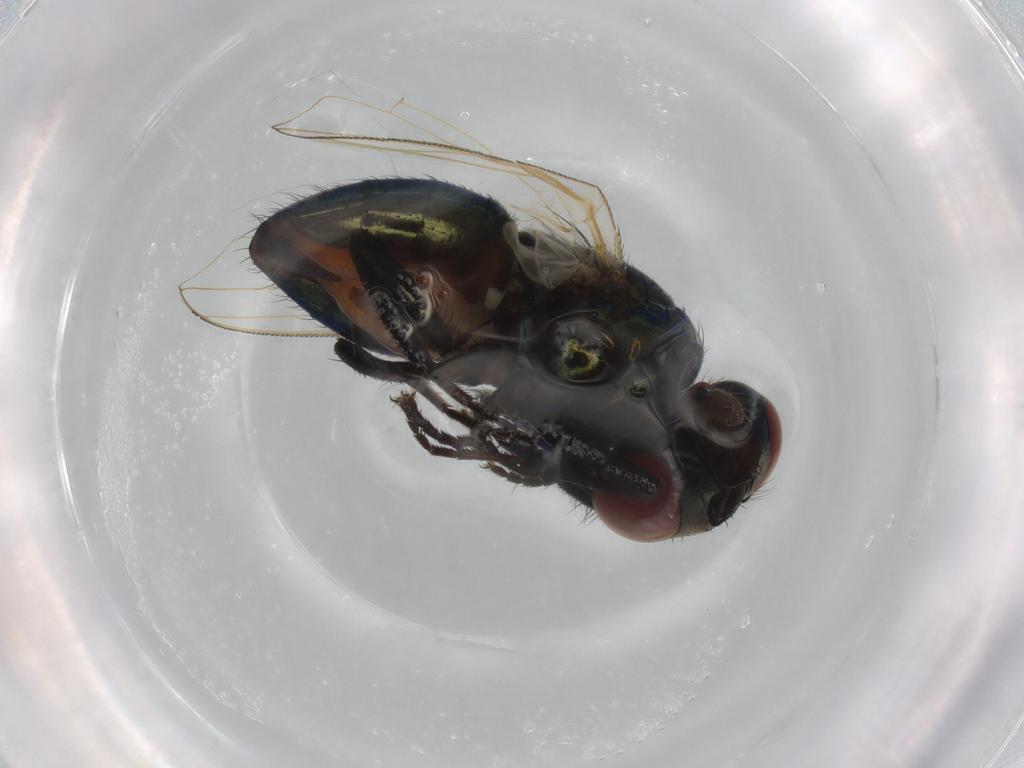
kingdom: Animalia
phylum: Arthropoda
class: Insecta
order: Diptera
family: Muscidae
